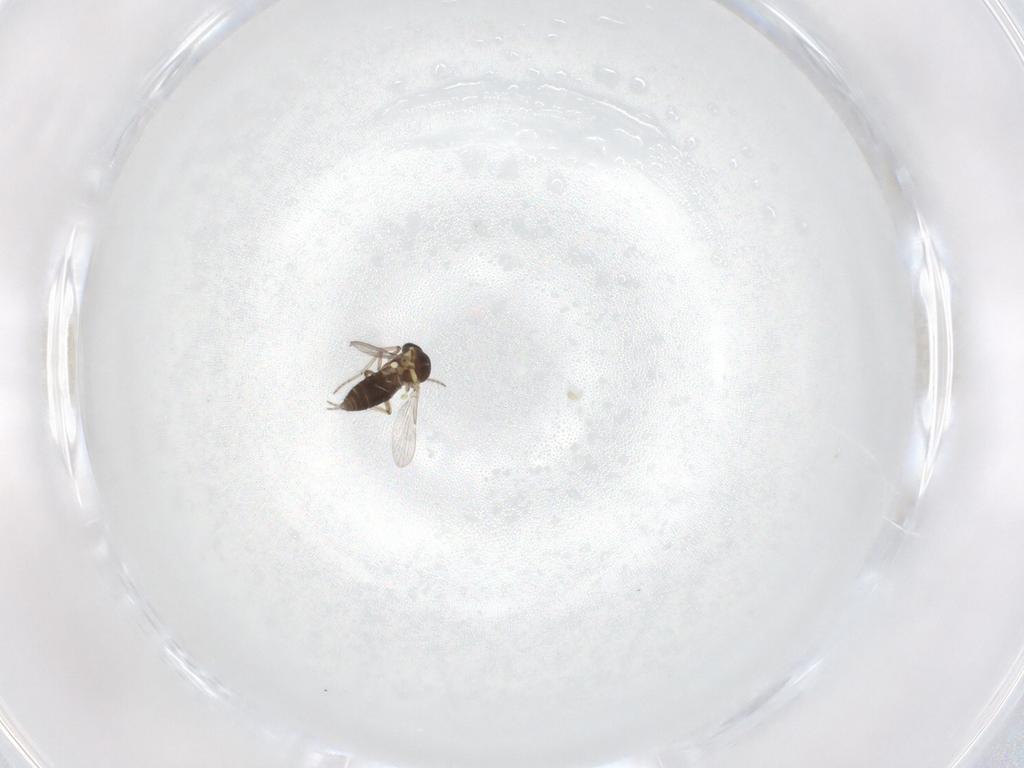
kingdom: Animalia
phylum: Arthropoda
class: Insecta
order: Diptera
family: Ceratopogonidae
